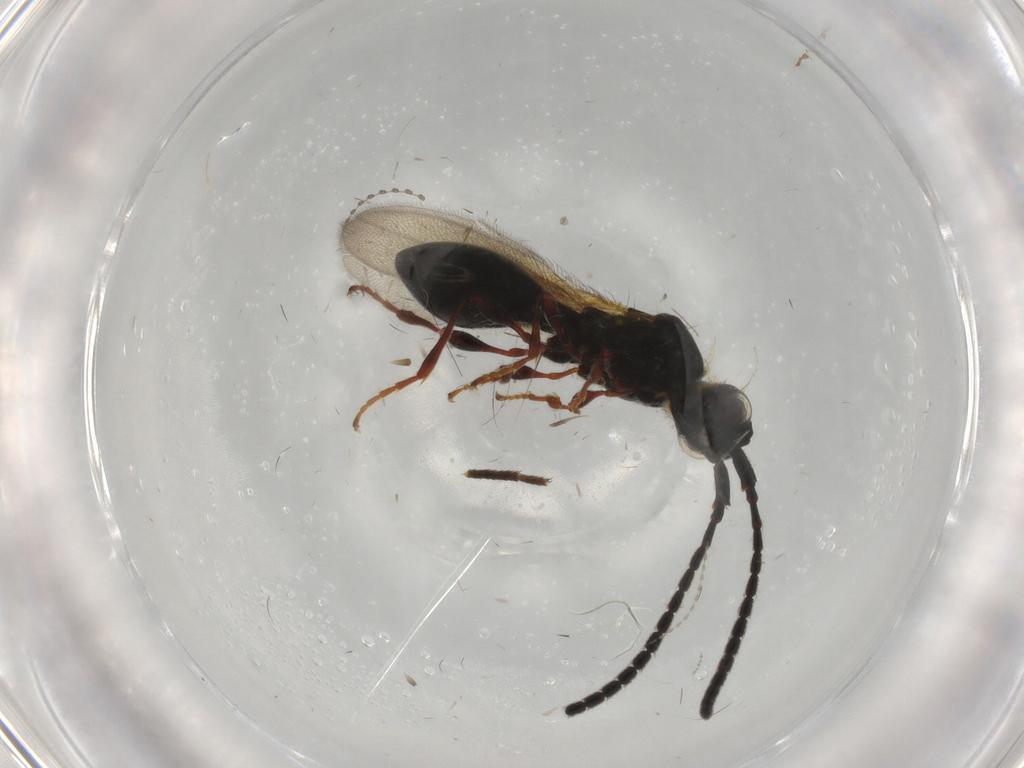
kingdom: Animalia
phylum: Arthropoda
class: Insecta
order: Hymenoptera
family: Diapriidae
